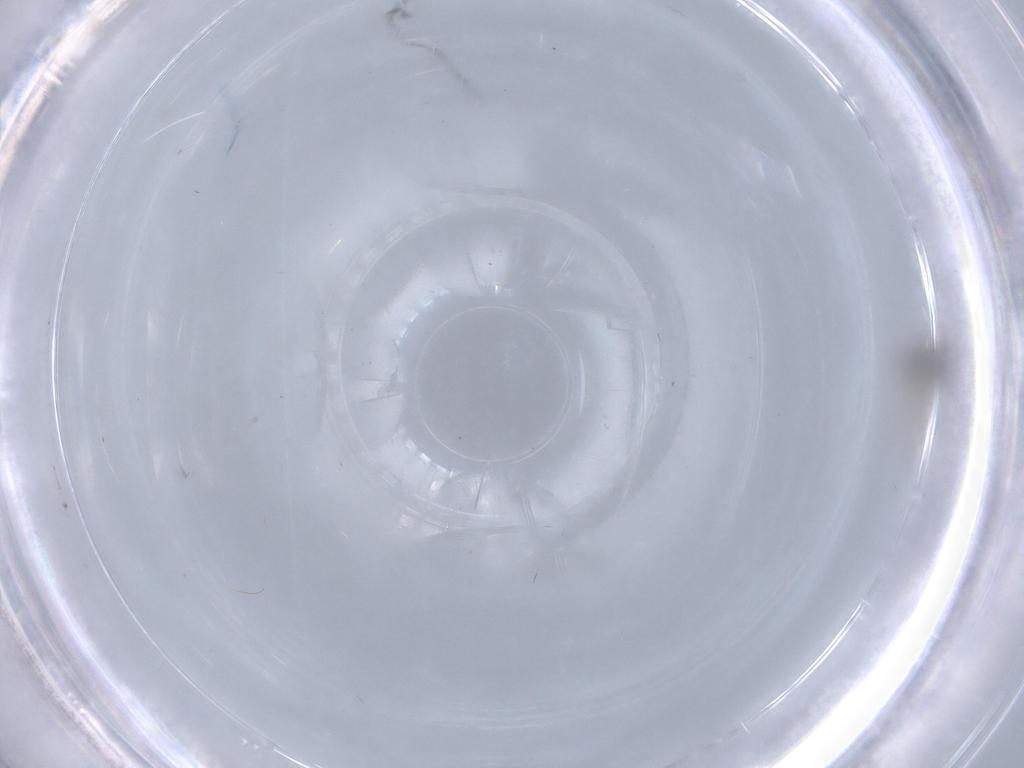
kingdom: Animalia
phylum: Arthropoda
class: Insecta
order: Diptera
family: Cecidomyiidae
